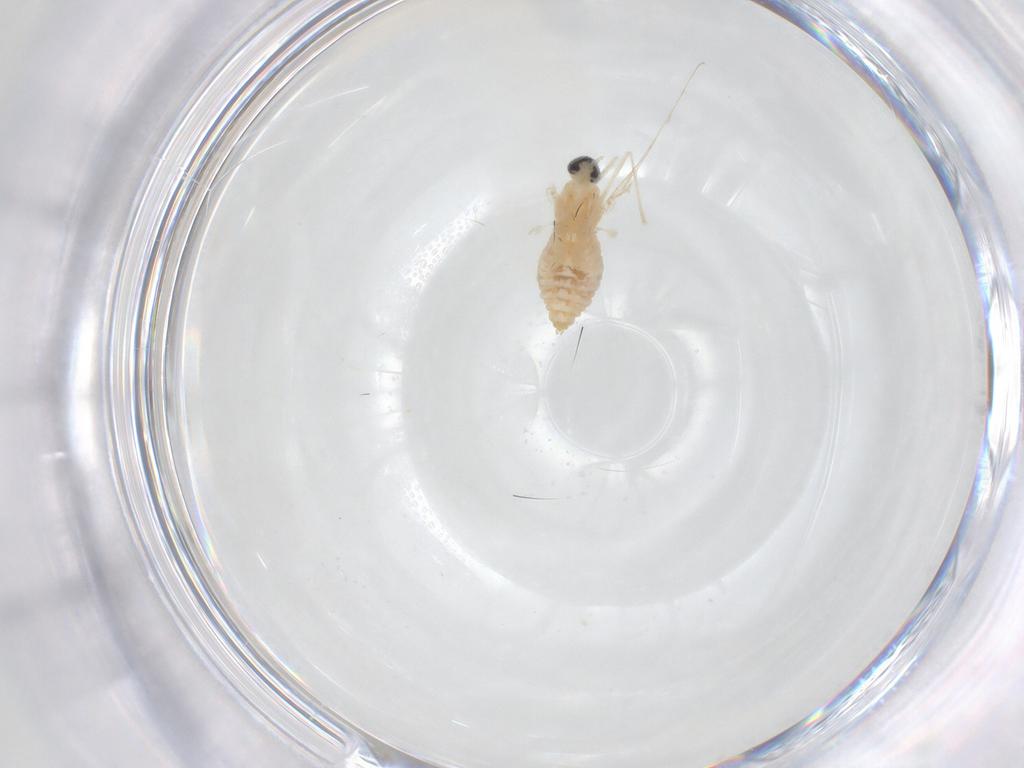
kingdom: Animalia
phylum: Arthropoda
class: Insecta
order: Diptera
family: Cecidomyiidae
